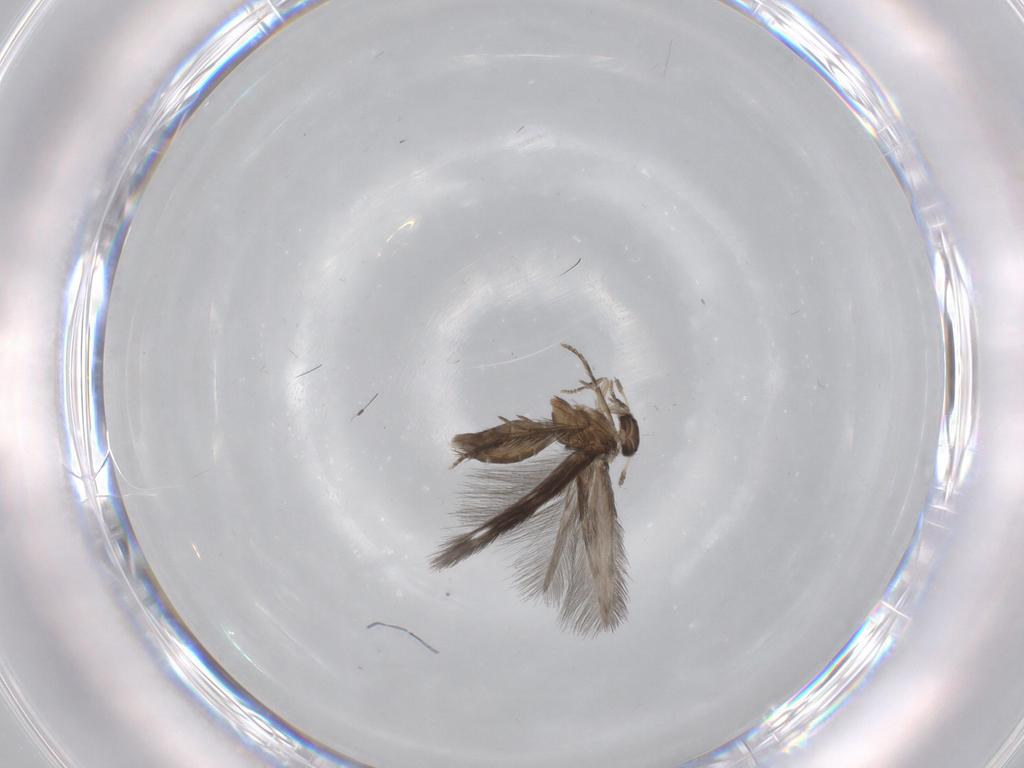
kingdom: Animalia
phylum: Arthropoda
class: Insecta
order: Trichoptera
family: Hydroptilidae
